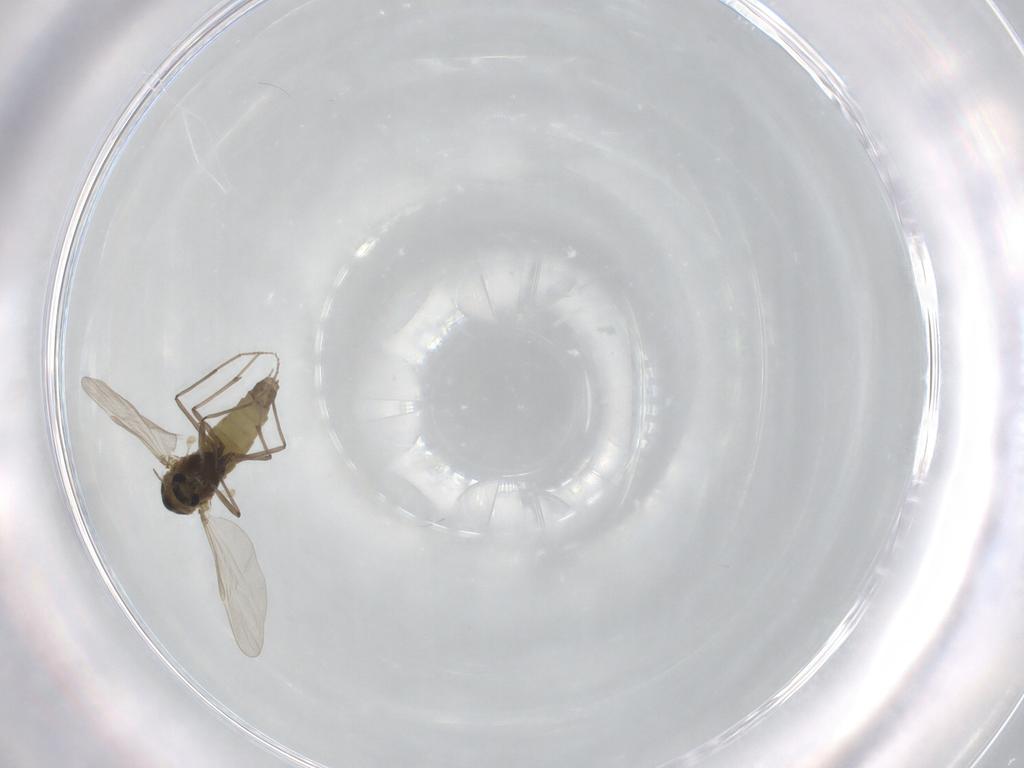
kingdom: Animalia
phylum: Arthropoda
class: Insecta
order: Diptera
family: Chironomidae
